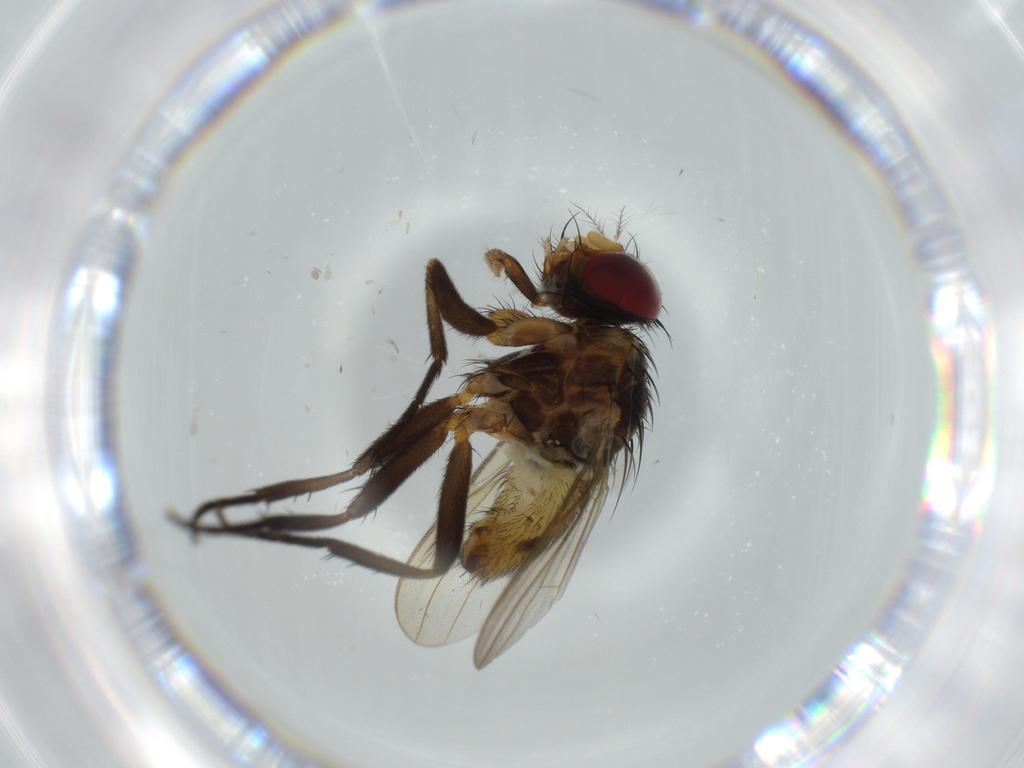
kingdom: Animalia
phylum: Arthropoda
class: Insecta
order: Diptera
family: Anthomyiidae
